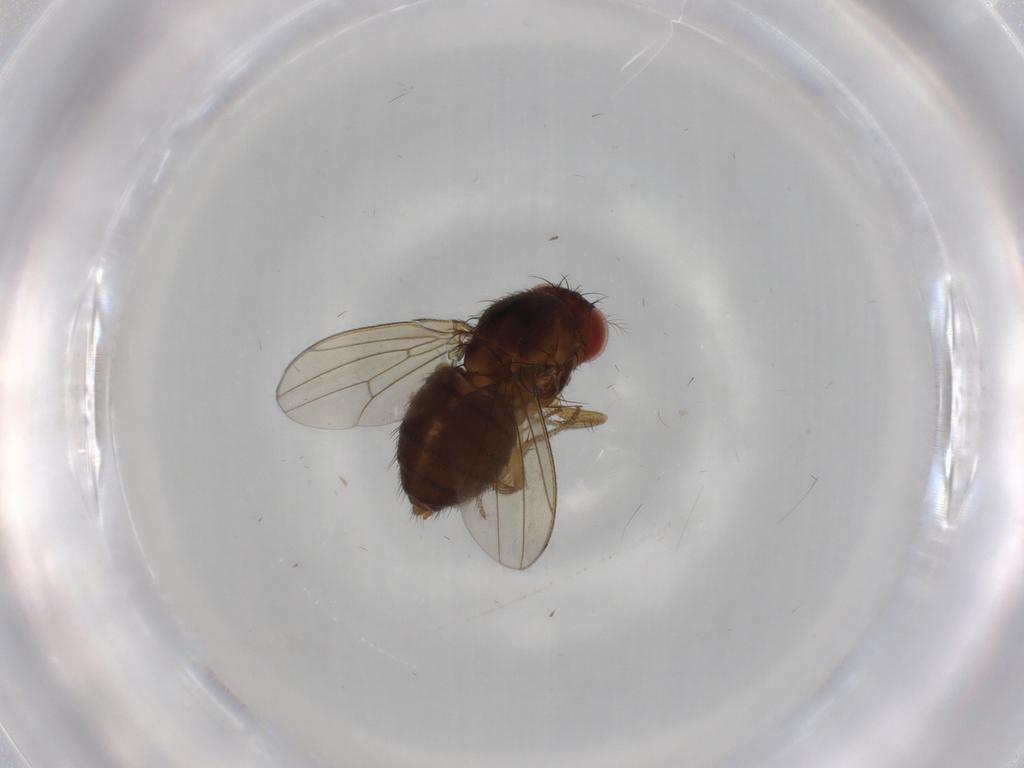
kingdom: Animalia
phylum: Arthropoda
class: Insecta
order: Diptera
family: Drosophilidae
